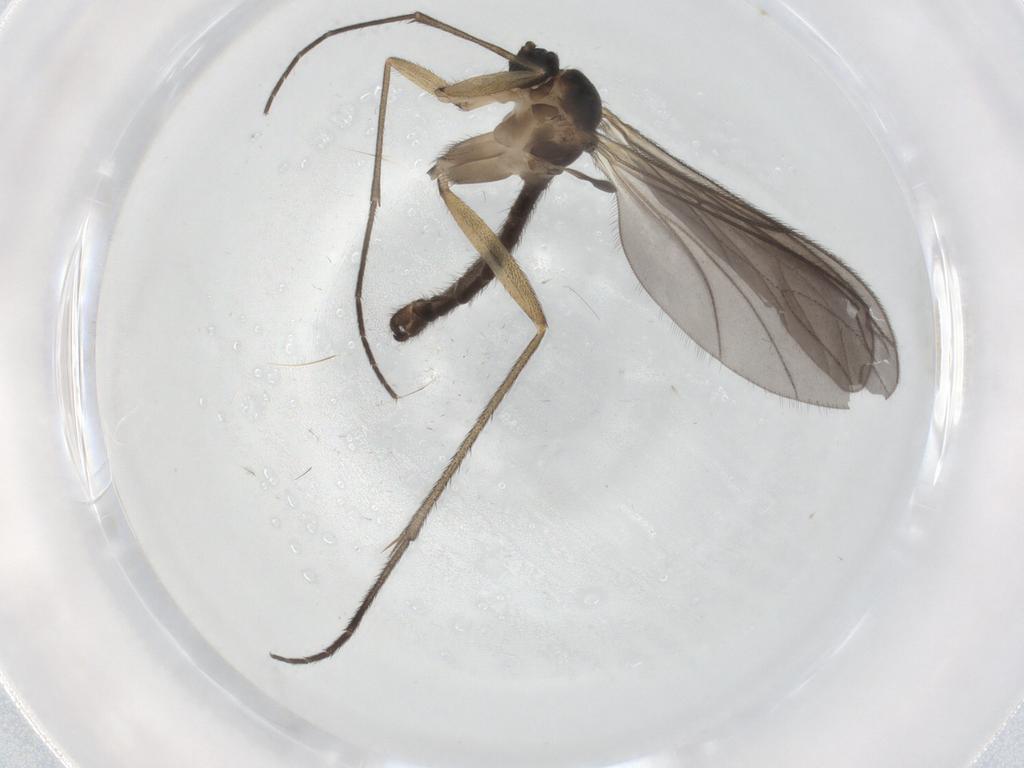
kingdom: Animalia
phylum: Arthropoda
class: Insecta
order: Diptera
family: Sciaridae
